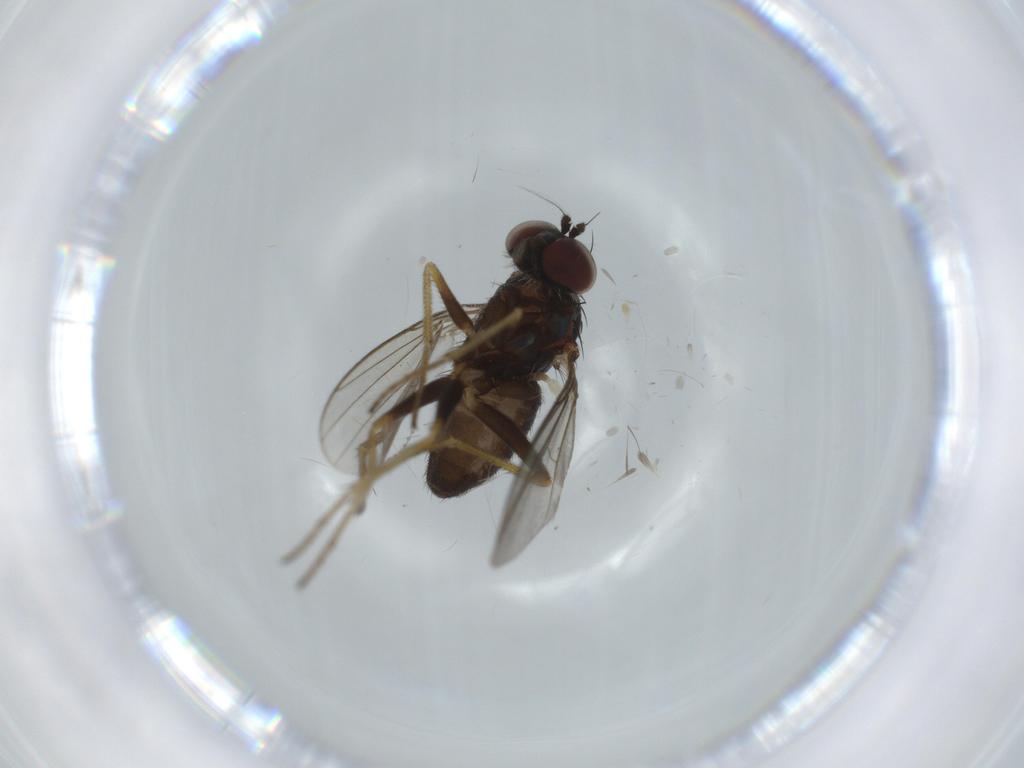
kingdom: Animalia
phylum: Arthropoda
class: Insecta
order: Diptera
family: Cecidomyiidae
